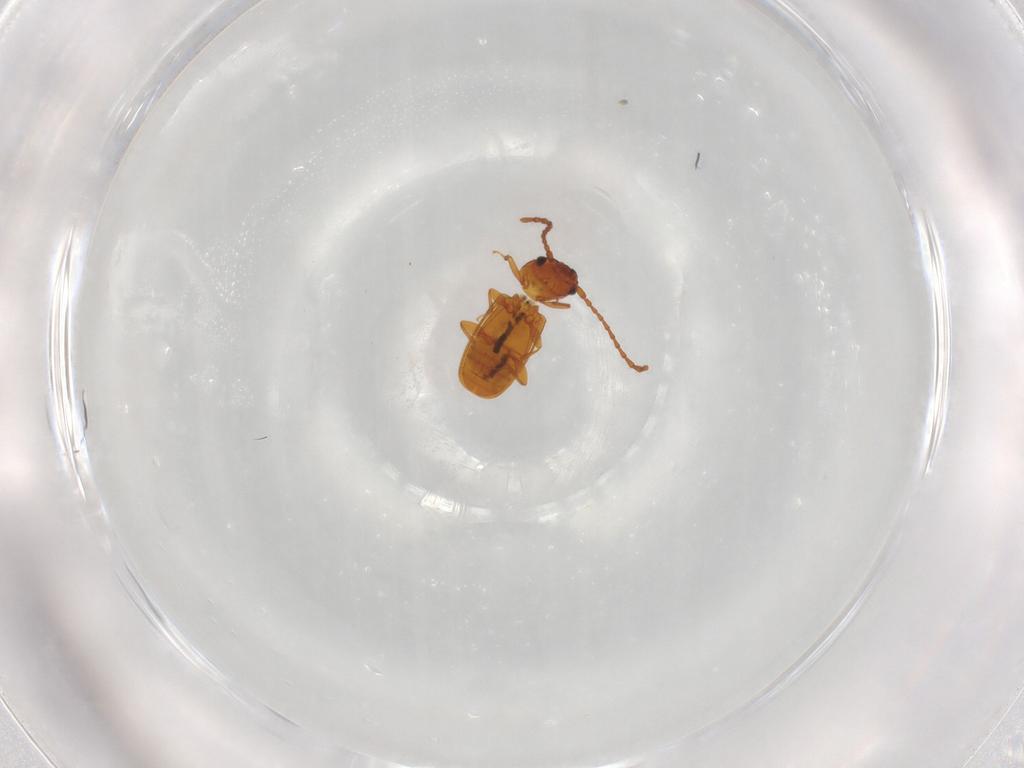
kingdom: Animalia
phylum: Arthropoda
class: Insecta
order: Coleoptera
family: Laemophloeidae
